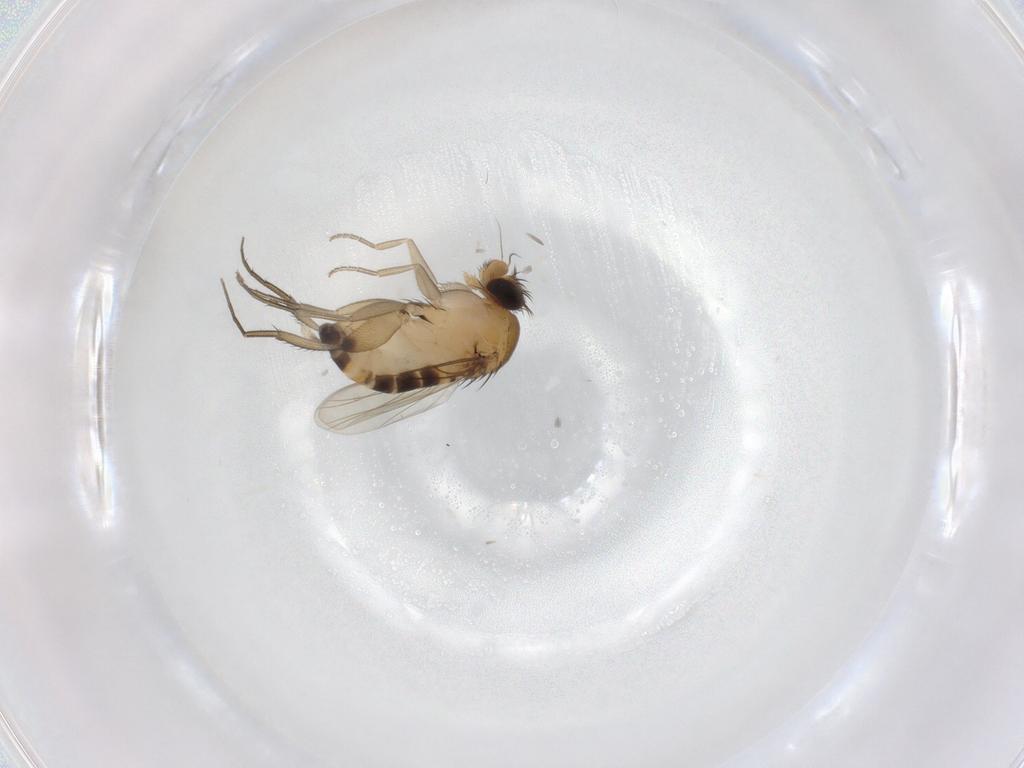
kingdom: Animalia
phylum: Arthropoda
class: Insecta
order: Diptera
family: Phoridae
